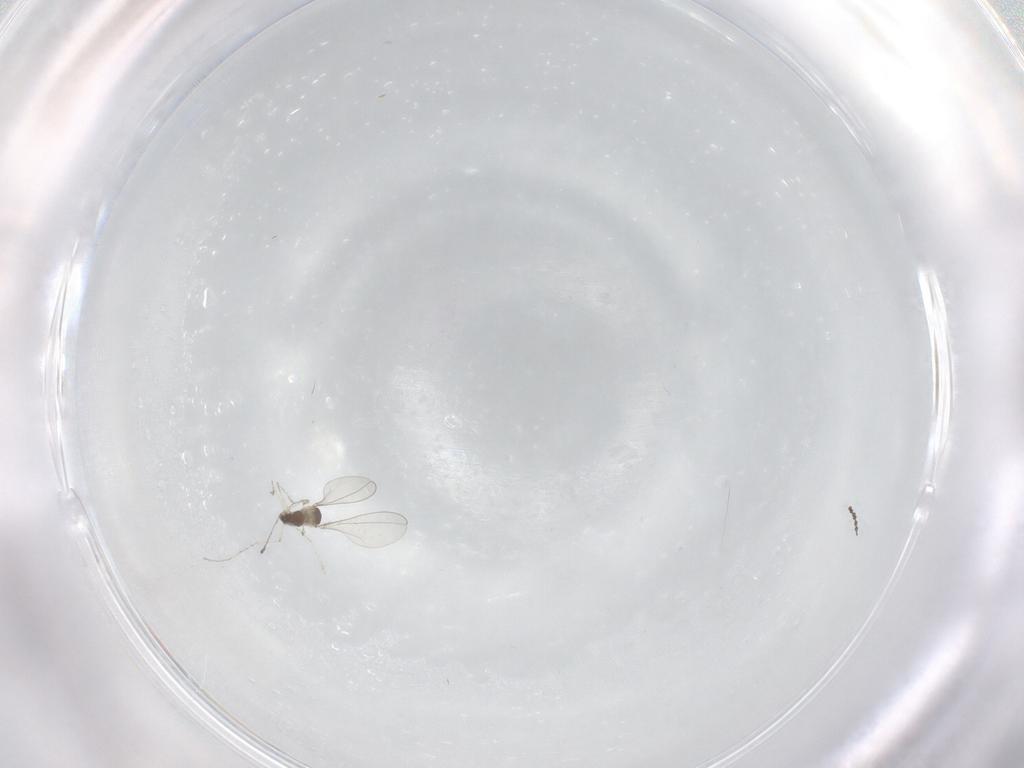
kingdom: Animalia
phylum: Arthropoda
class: Insecta
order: Diptera
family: Cecidomyiidae
